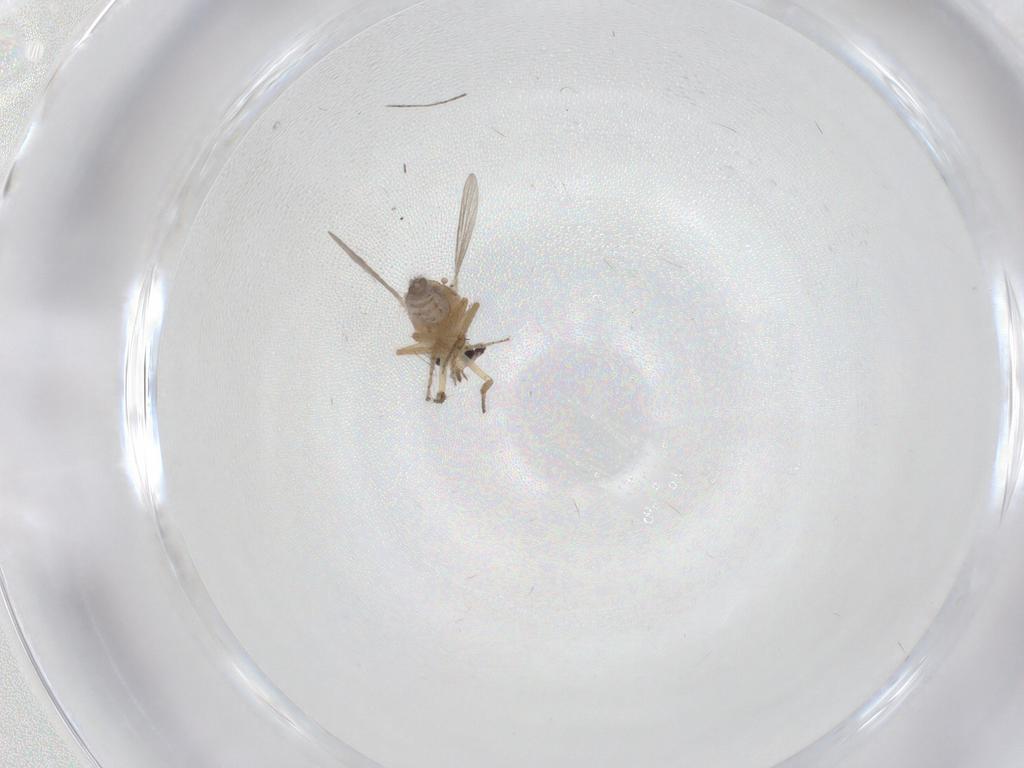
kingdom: Animalia
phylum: Arthropoda
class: Insecta
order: Diptera
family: Ceratopogonidae
